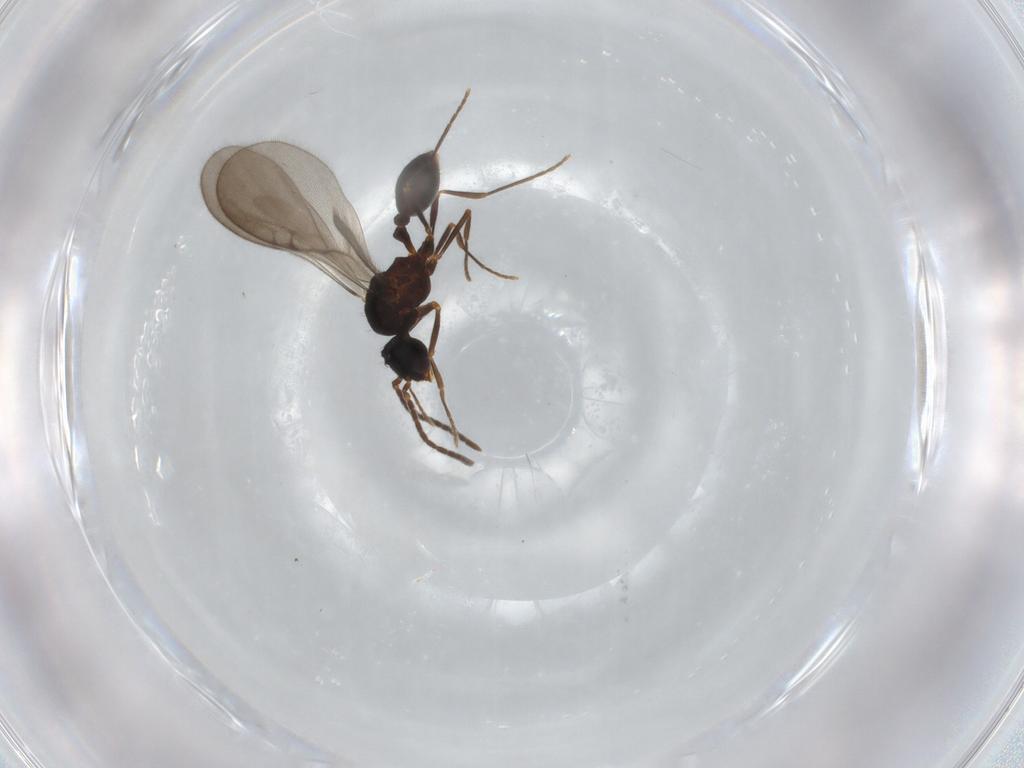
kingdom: Animalia
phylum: Arthropoda
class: Insecta
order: Hymenoptera
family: Formicidae
